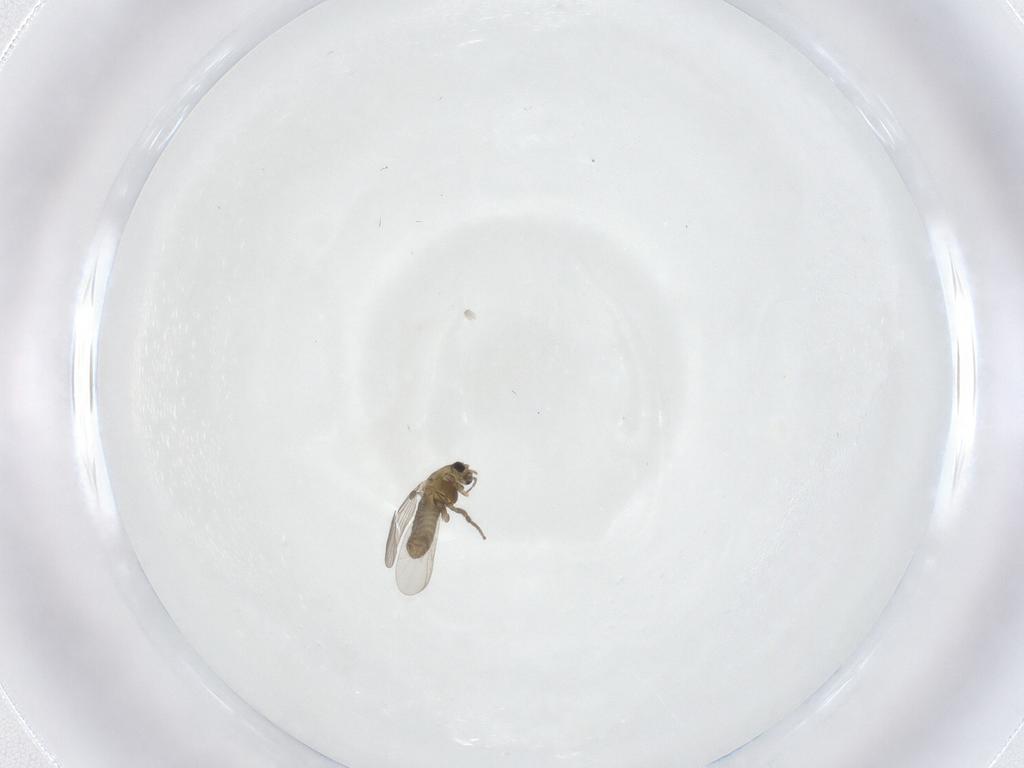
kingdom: Animalia
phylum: Arthropoda
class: Insecta
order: Diptera
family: Chironomidae
